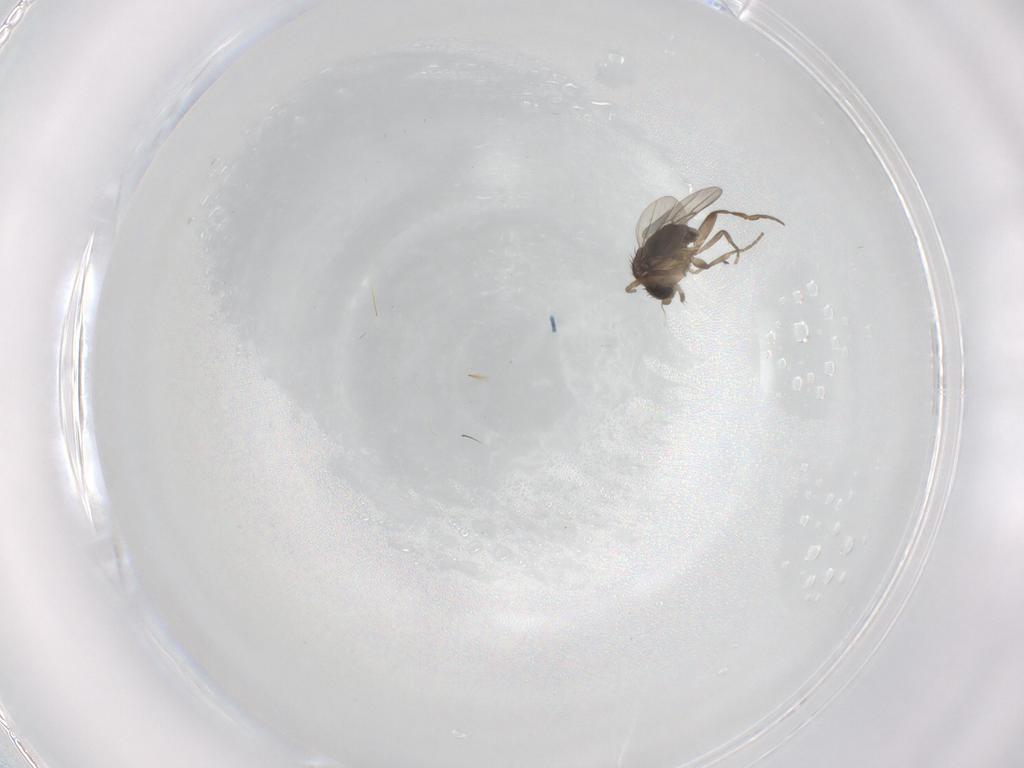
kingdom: Animalia
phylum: Arthropoda
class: Insecta
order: Diptera
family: Phoridae
